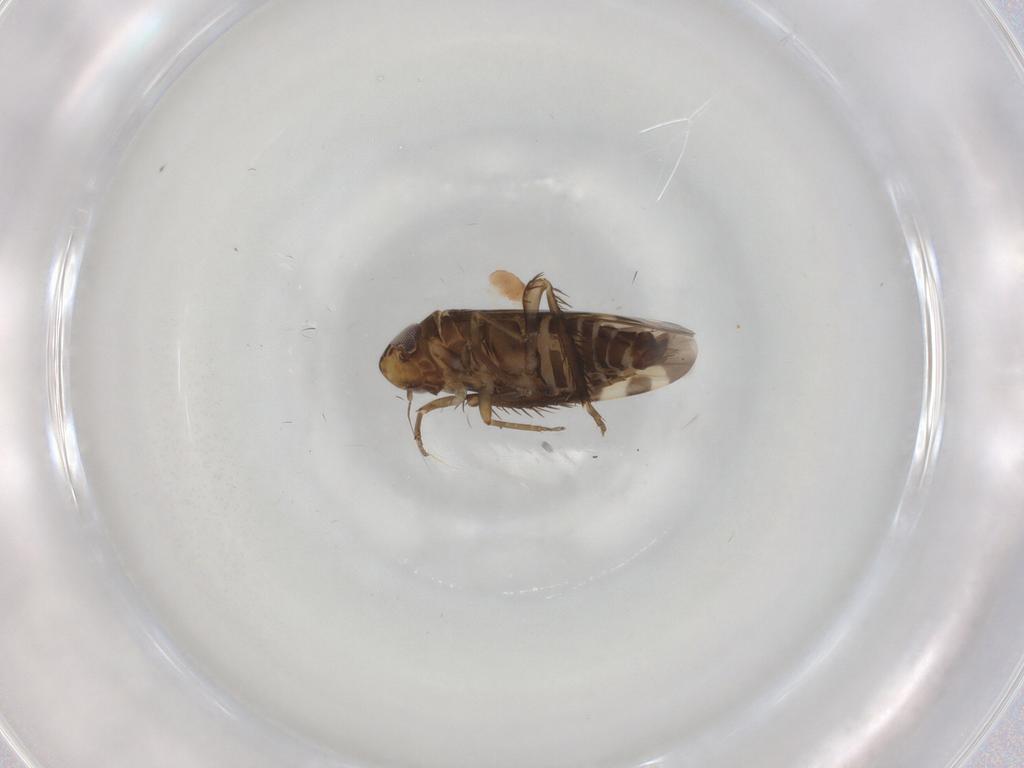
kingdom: Animalia
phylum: Arthropoda
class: Insecta
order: Hemiptera
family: Cicadellidae
